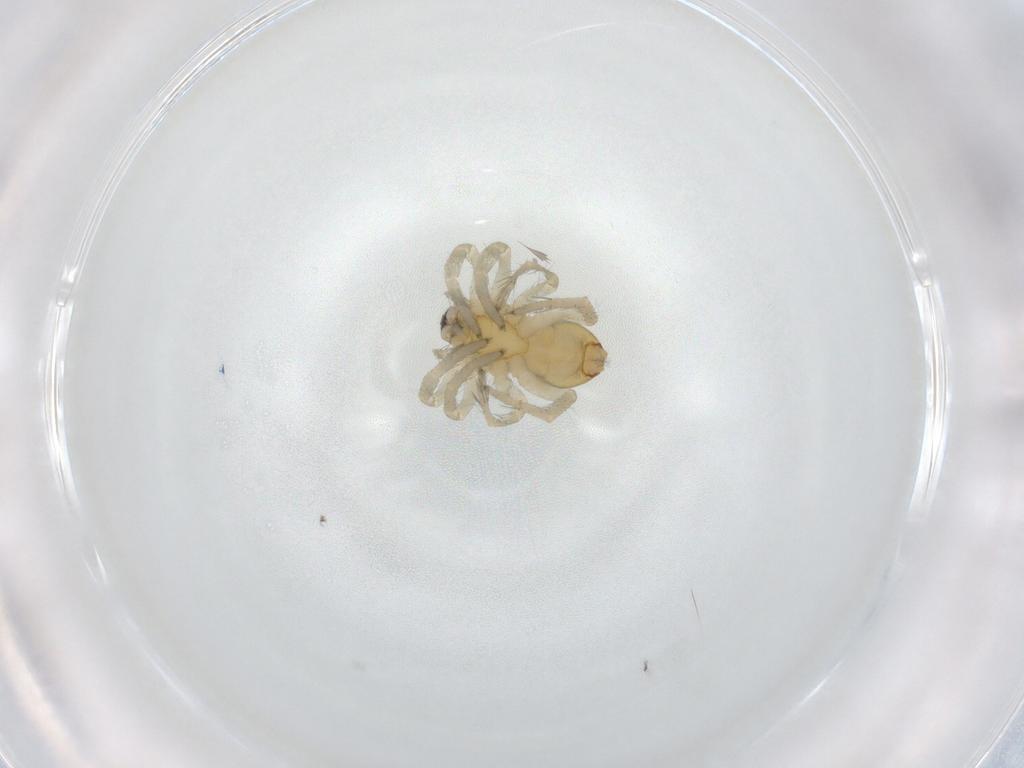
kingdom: Animalia
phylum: Arthropoda
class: Arachnida
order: Araneae
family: Anyphaenidae
